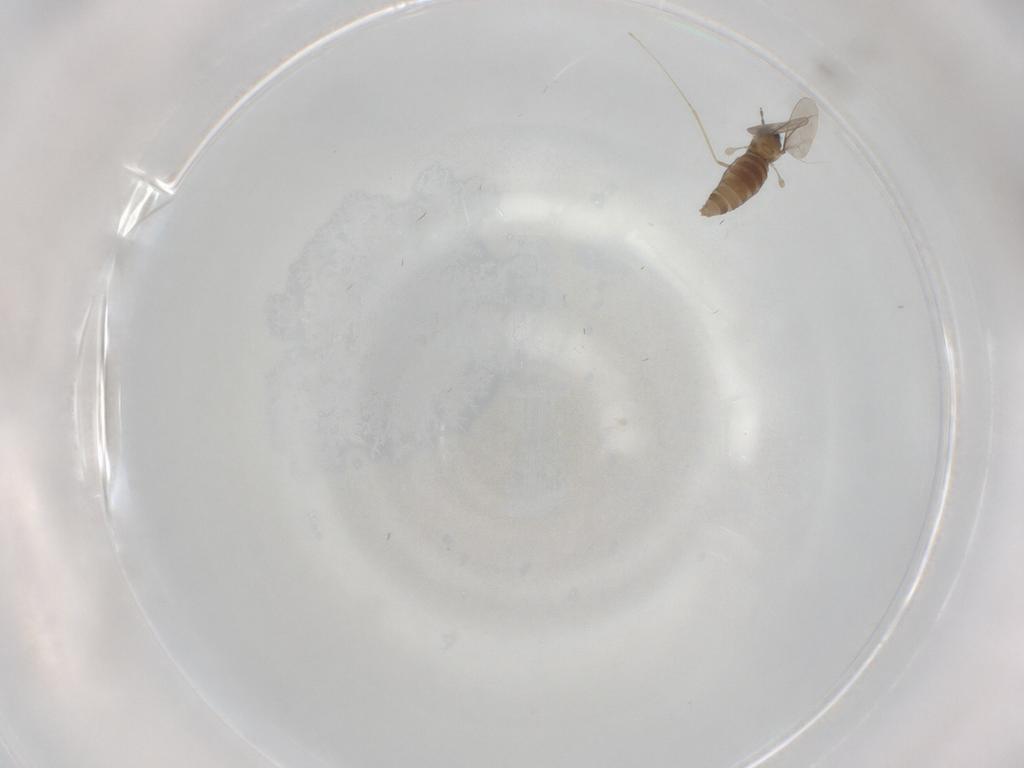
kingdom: Animalia
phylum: Arthropoda
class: Insecta
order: Diptera
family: Cecidomyiidae
